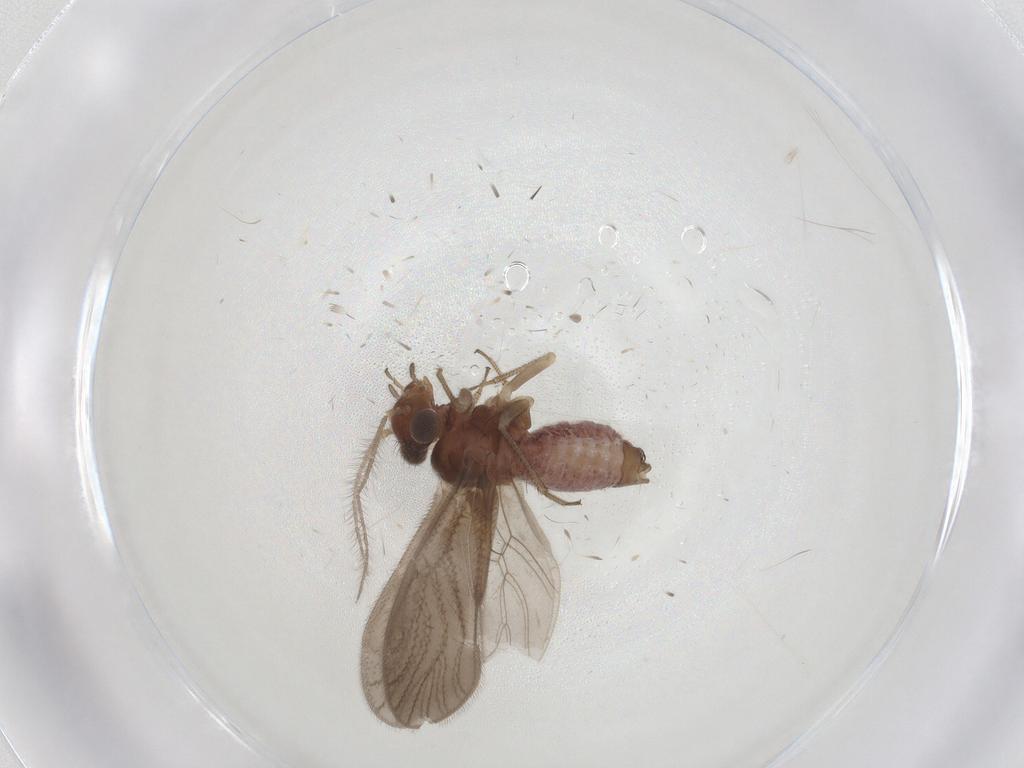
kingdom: Animalia
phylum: Arthropoda
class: Insecta
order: Psocodea
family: Pseudocaeciliidae
